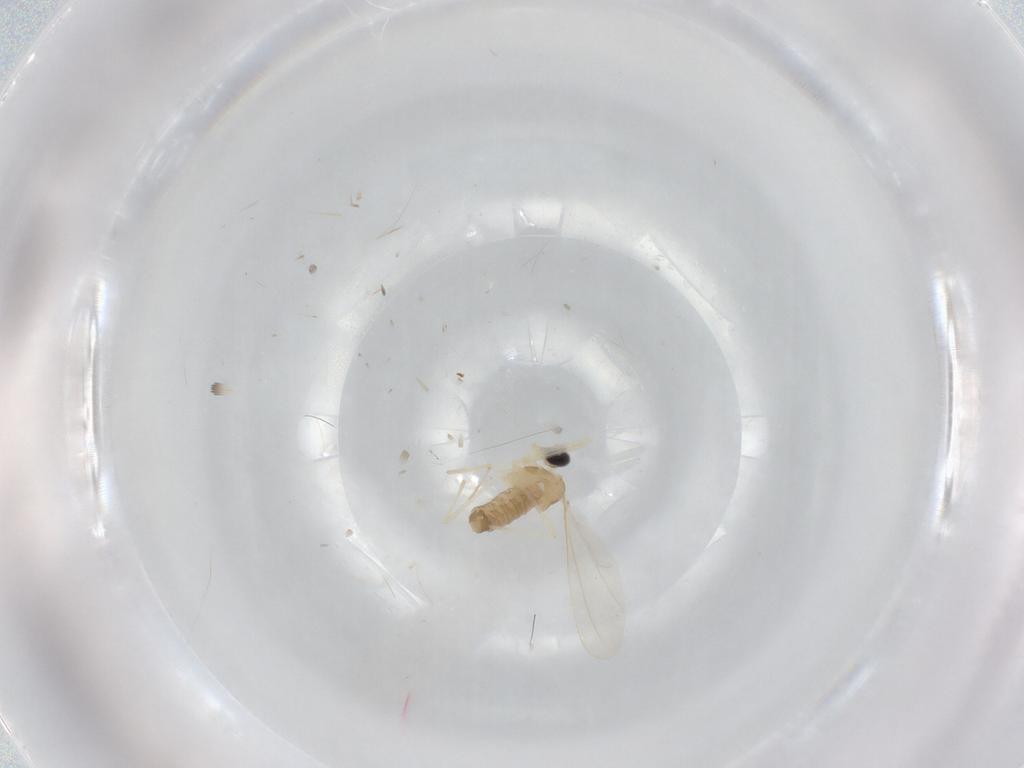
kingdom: Animalia
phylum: Arthropoda
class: Insecta
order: Diptera
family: Cecidomyiidae
